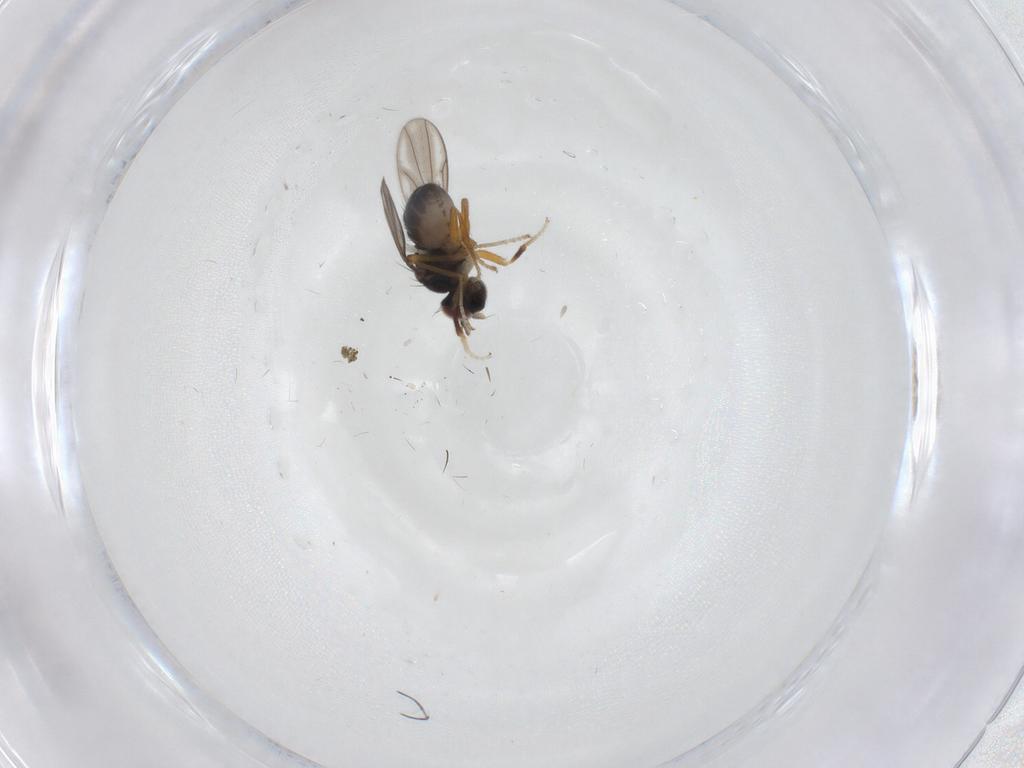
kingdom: Animalia
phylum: Arthropoda
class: Insecta
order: Diptera
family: Ephydridae
